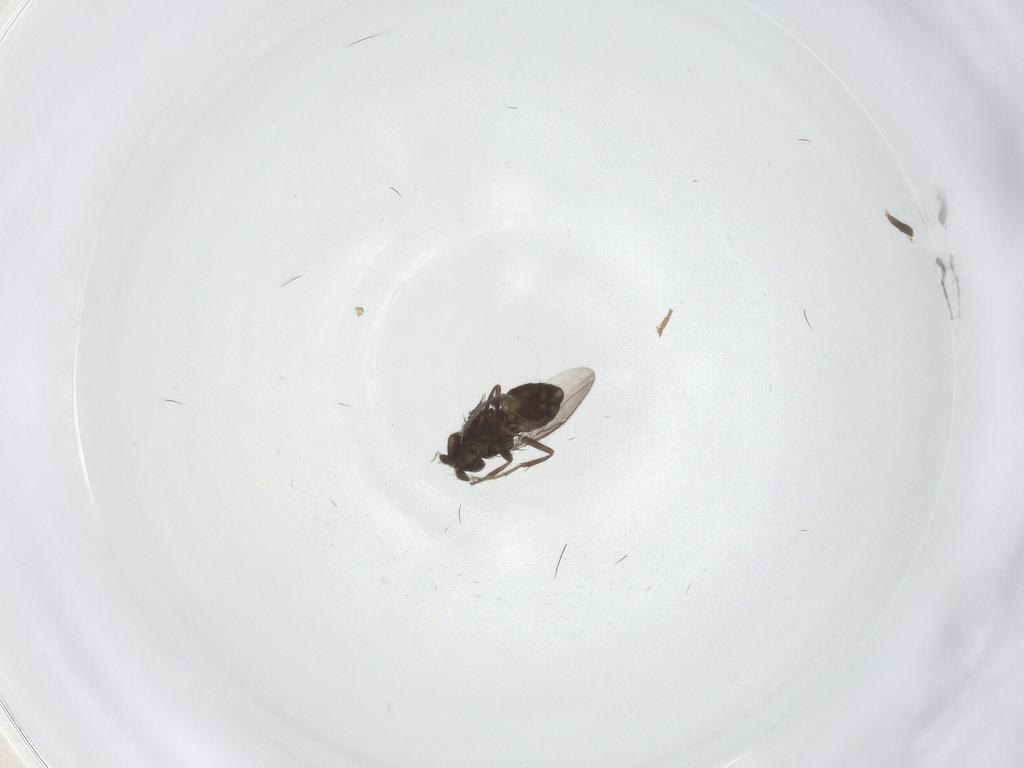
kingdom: Animalia
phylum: Arthropoda
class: Insecta
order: Diptera
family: Sphaeroceridae
